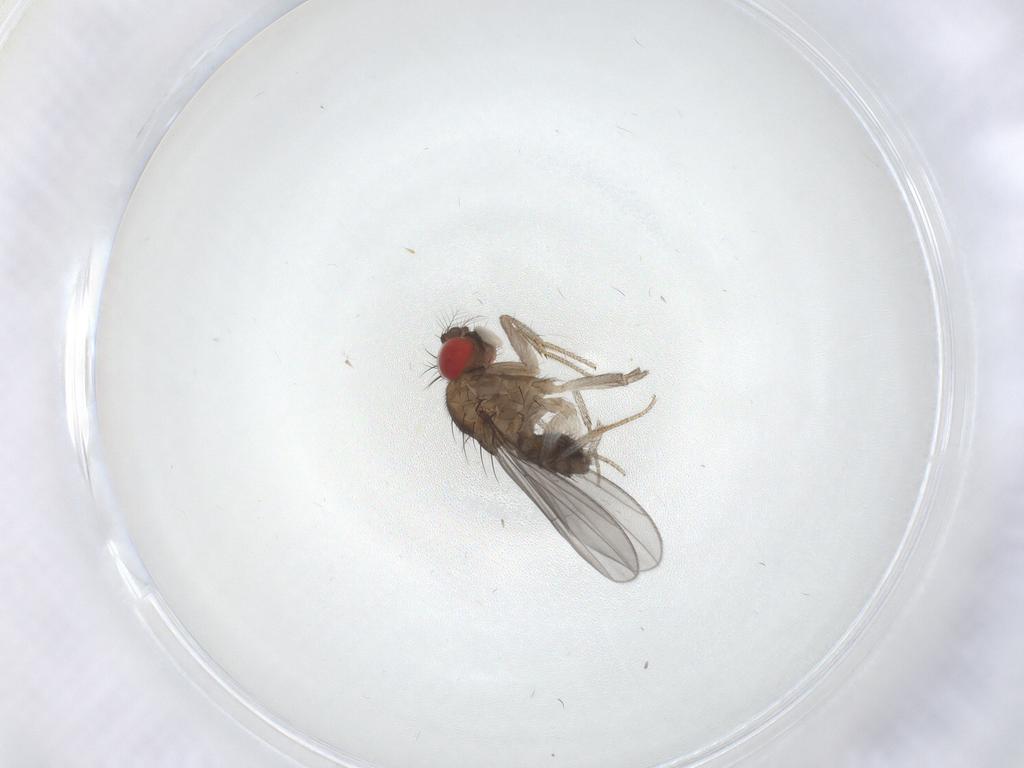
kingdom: Animalia
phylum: Arthropoda
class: Insecta
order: Diptera
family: Drosophilidae
